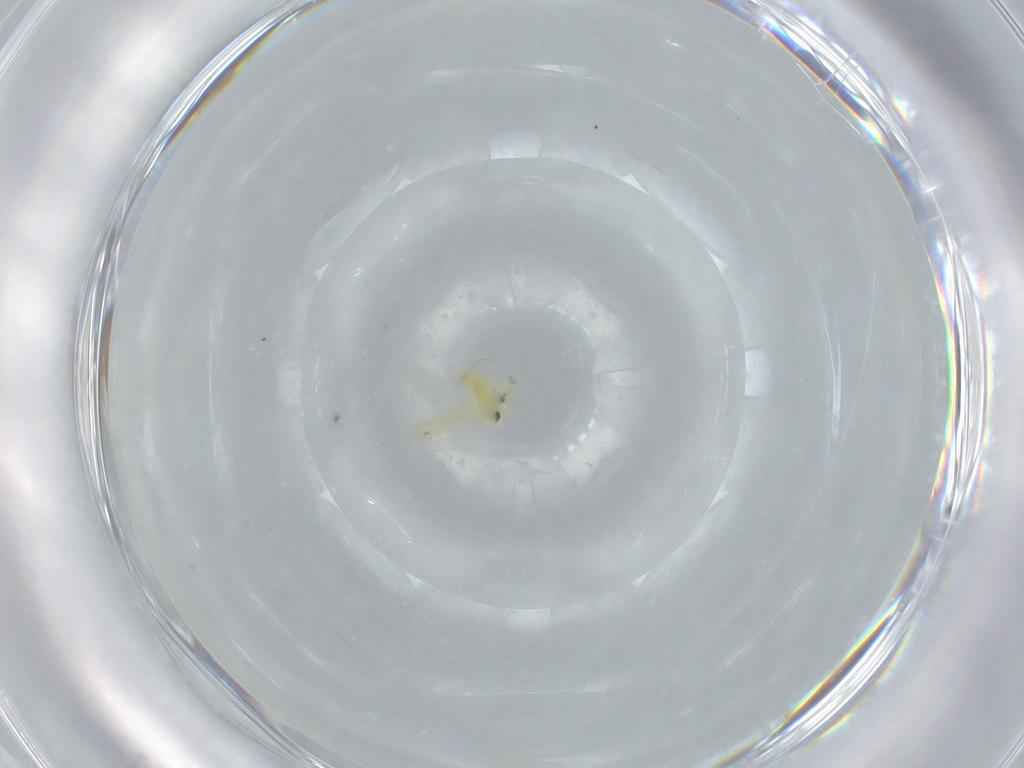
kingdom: Animalia
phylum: Arthropoda
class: Insecta
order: Hemiptera
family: Aleyrodidae
